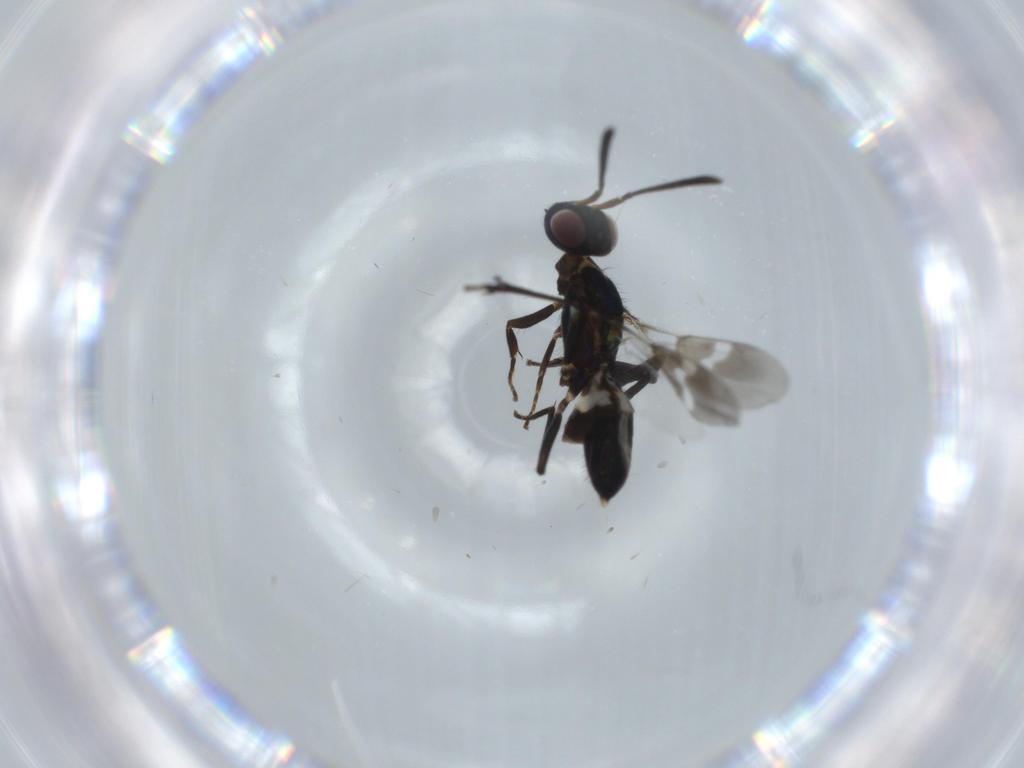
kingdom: Animalia
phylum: Arthropoda
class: Insecta
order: Hymenoptera
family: Eupelmidae
